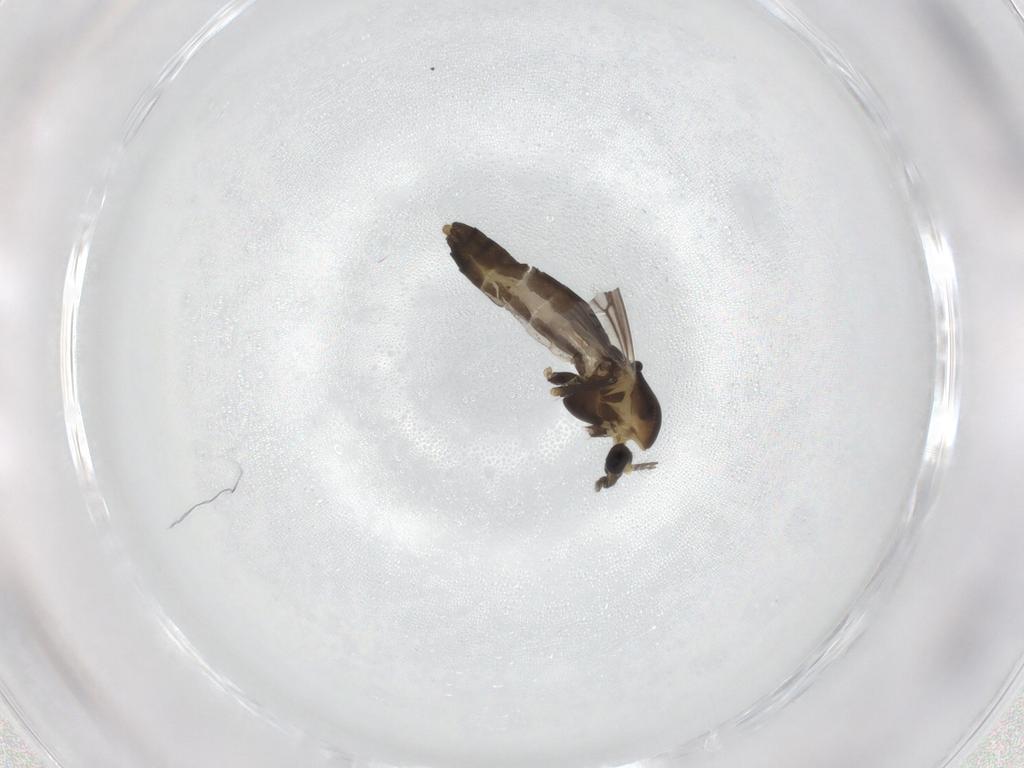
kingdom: Animalia
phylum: Arthropoda
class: Insecta
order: Diptera
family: Chironomidae
